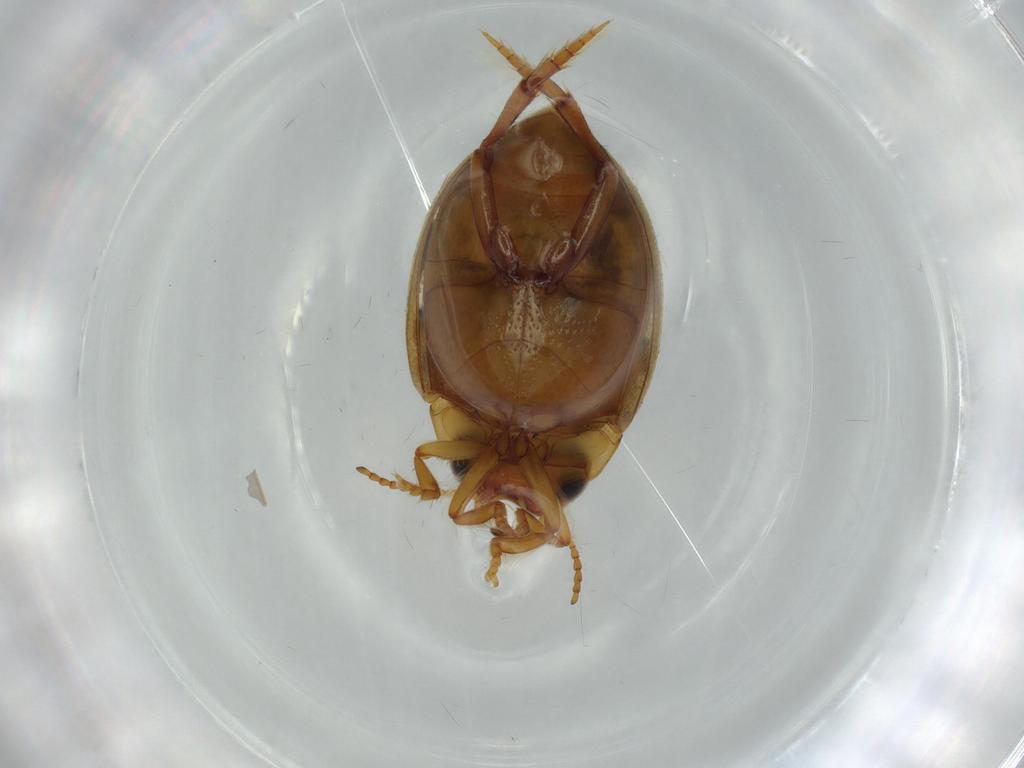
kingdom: Animalia
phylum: Arthropoda
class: Insecta
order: Coleoptera
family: Dytiscidae
